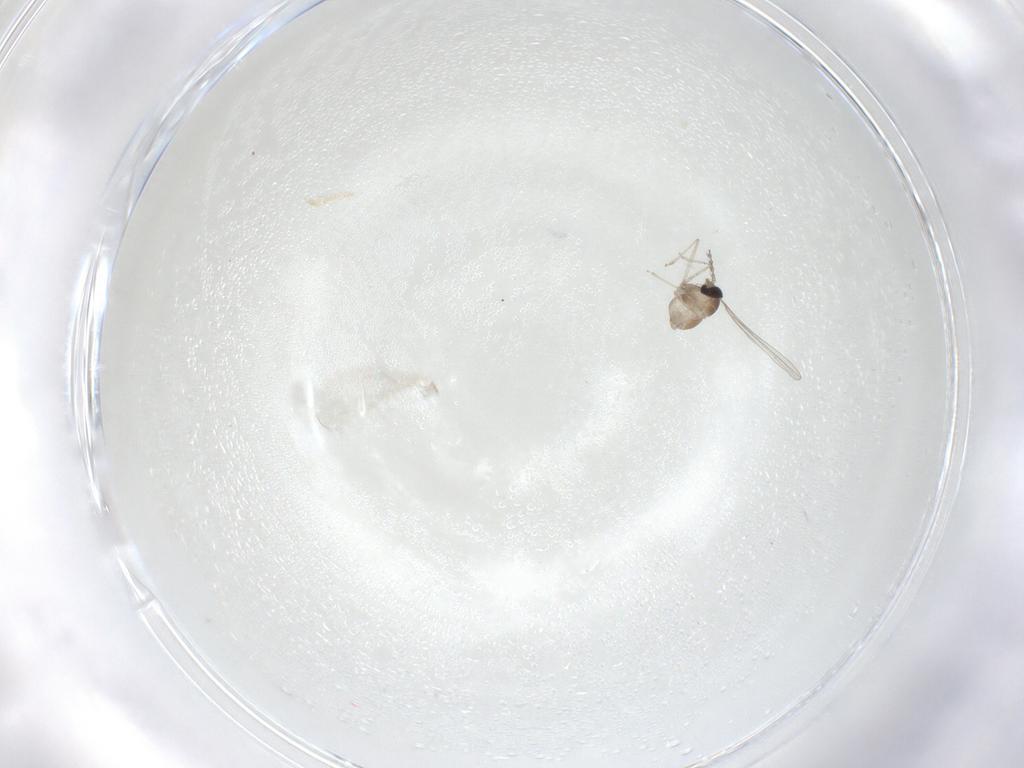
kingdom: Animalia
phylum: Arthropoda
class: Insecta
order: Diptera
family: Cecidomyiidae
